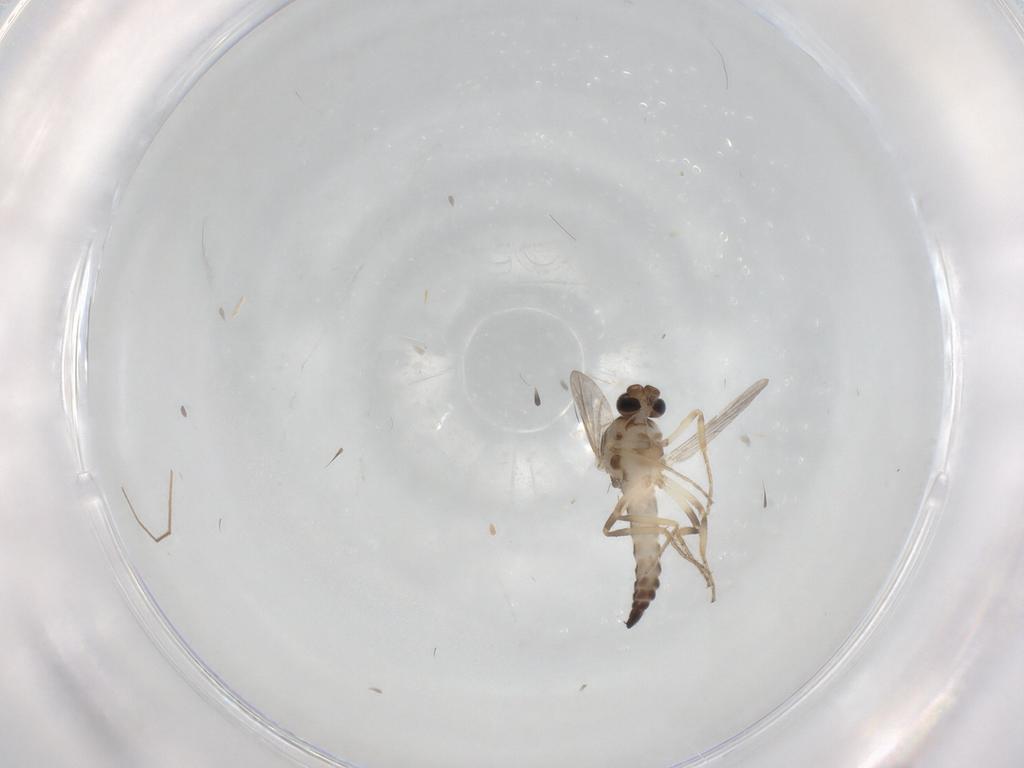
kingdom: Animalia
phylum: Arthropoda
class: Insecta
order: Diptera
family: Ceratopogonidae
